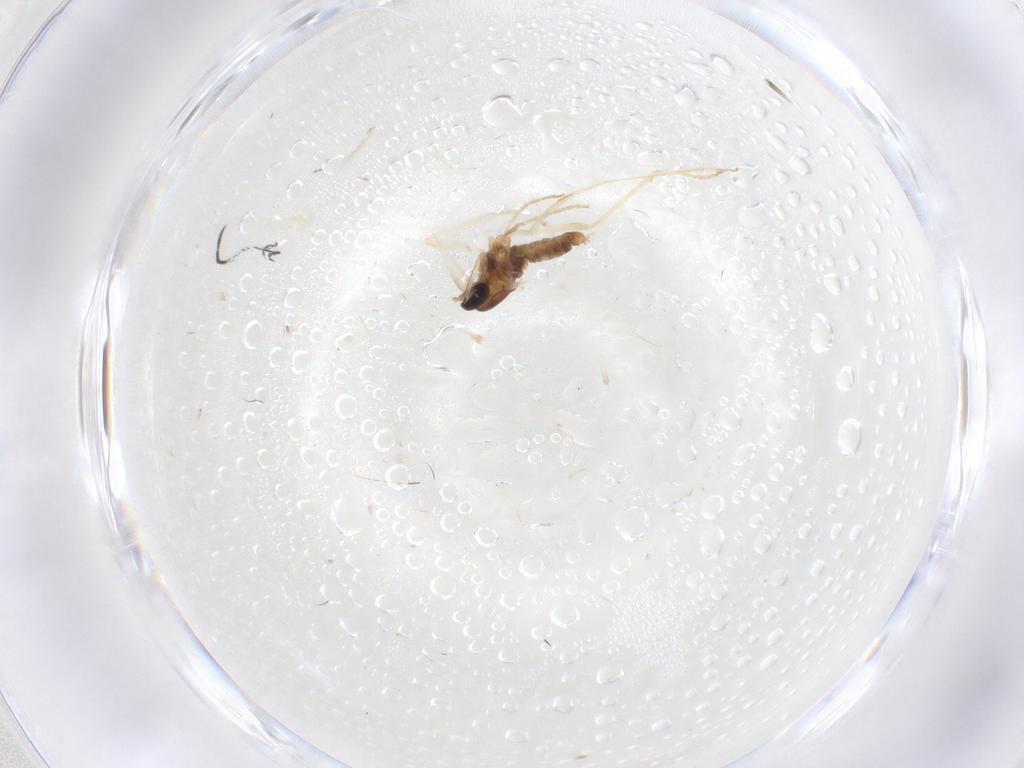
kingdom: Animalia
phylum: Arthropoda
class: Insecta
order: Diptera
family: Cecidomyiidae
